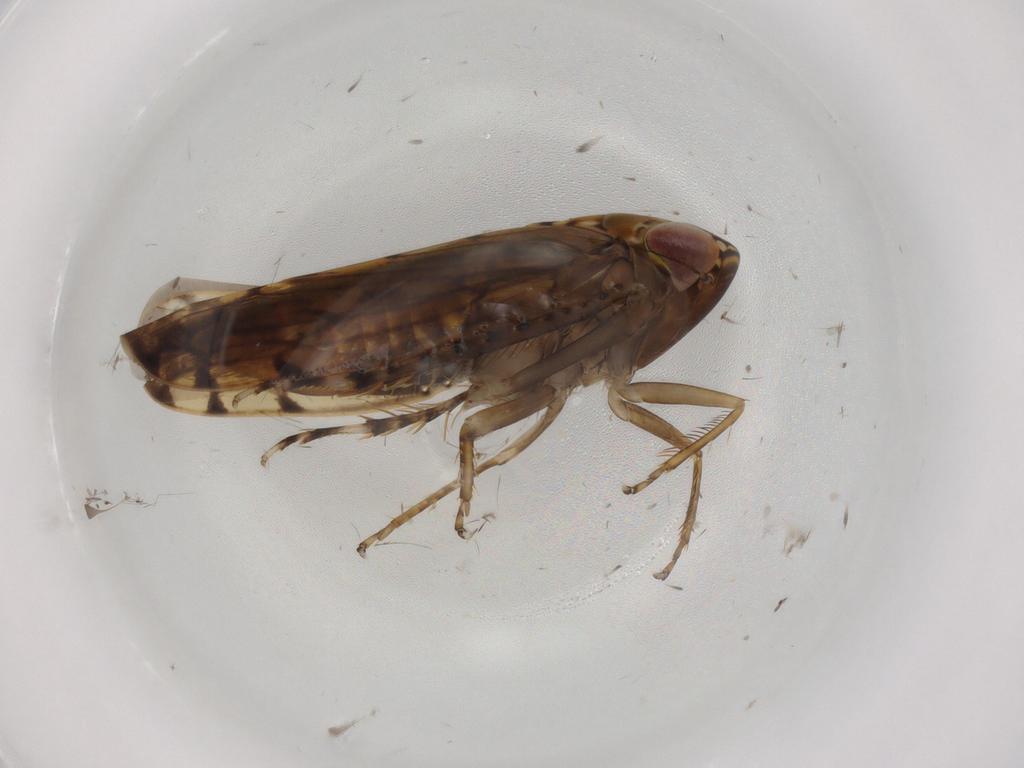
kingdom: Animalia
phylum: Arthropoda
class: Insecta
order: Hemiptera
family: Cicadellidae
